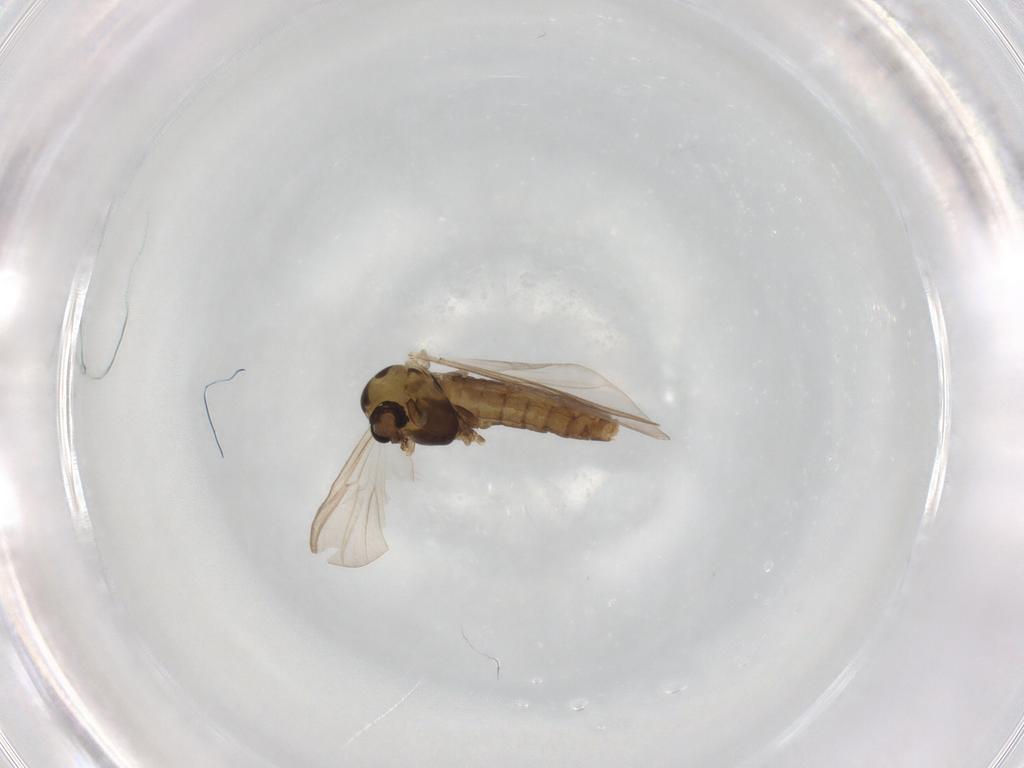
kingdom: Animalia
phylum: Arthropoda
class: Insecta
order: Diptera
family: Chironomidae
